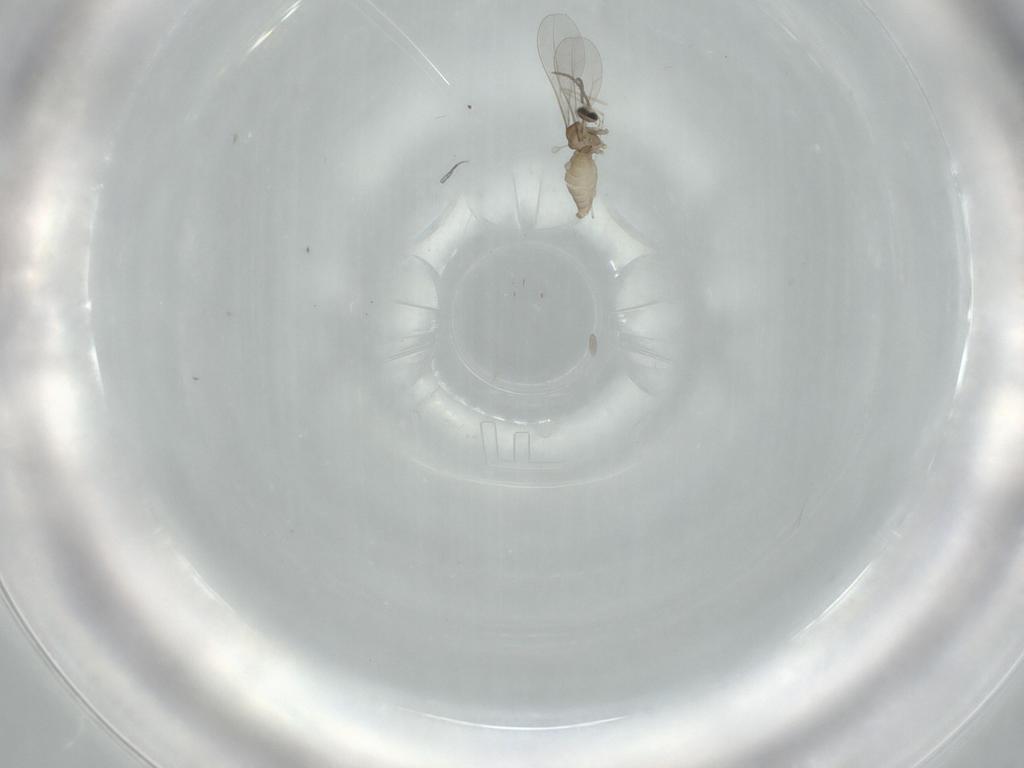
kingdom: Animalia
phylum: Arthropoda
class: Insecta
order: Diptera
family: Cecidomyiidae
